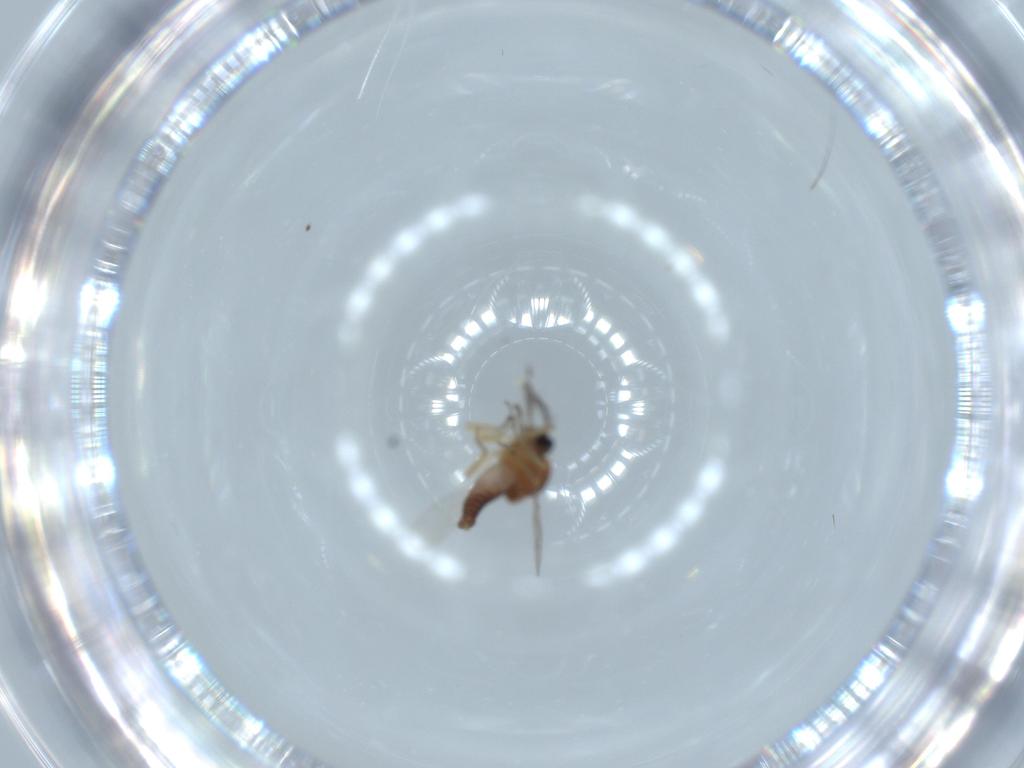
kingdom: Animalia
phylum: Arthropoda
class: Insecta
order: Diptera
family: Ceratopogonidae
